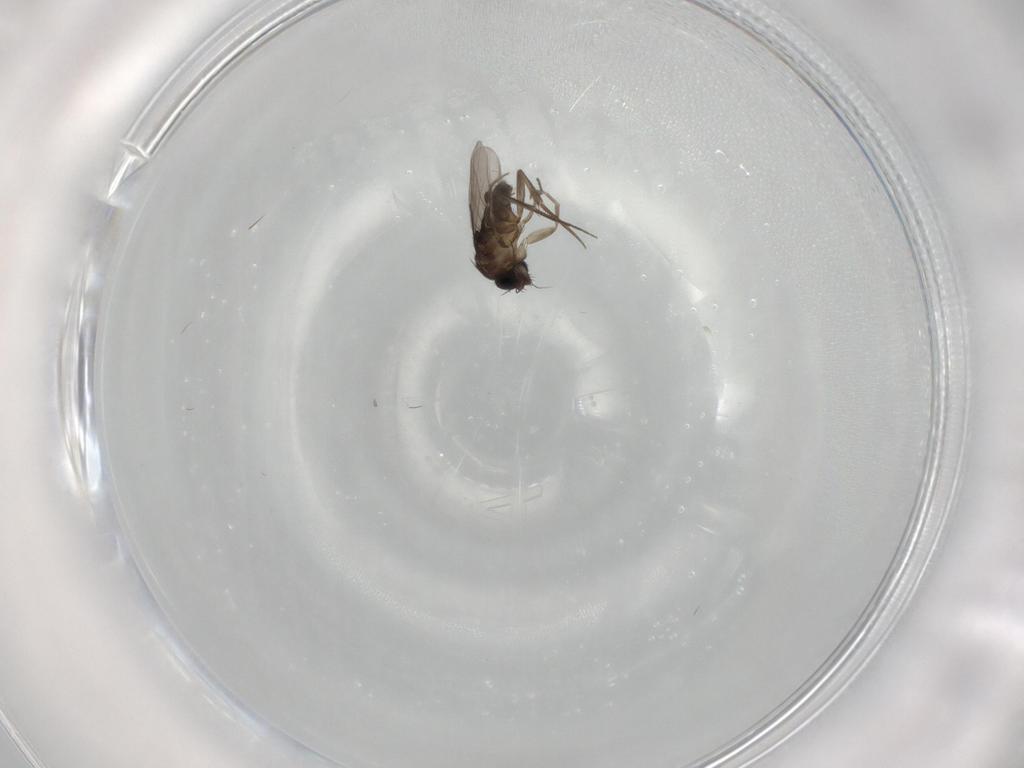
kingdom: Animalia
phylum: Arthropoda
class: Insecta
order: Diptera
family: Phoridae
